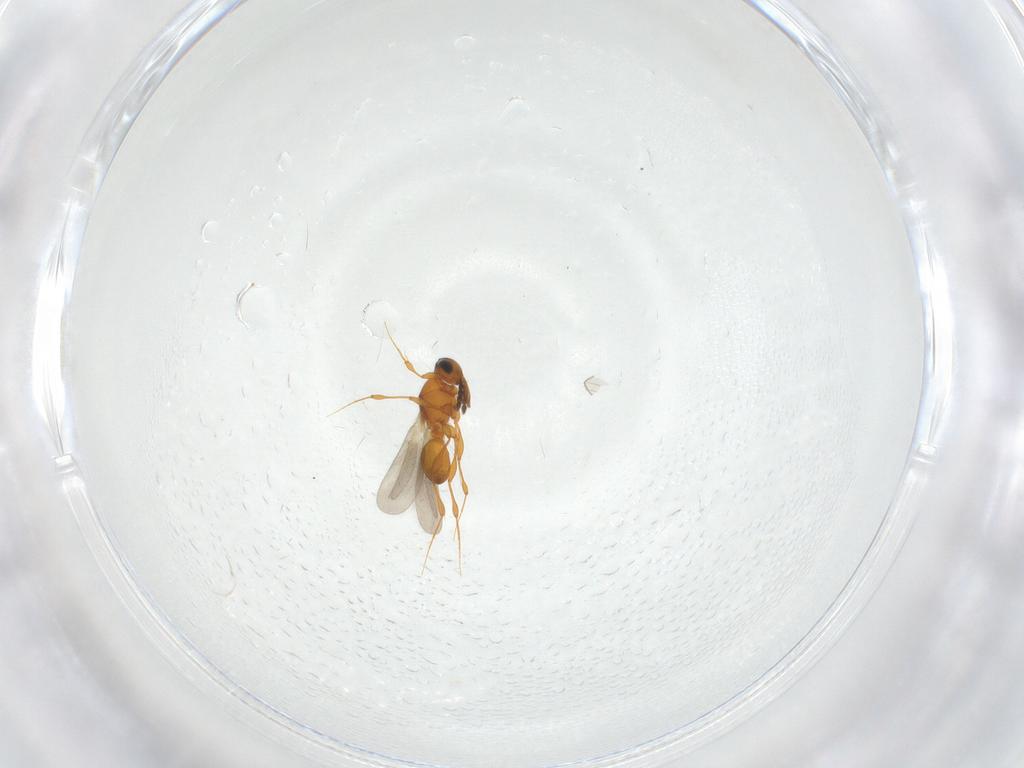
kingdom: Animalia
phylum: Arthropoda
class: Insecta
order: Hymenoptera
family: Platygastridae
